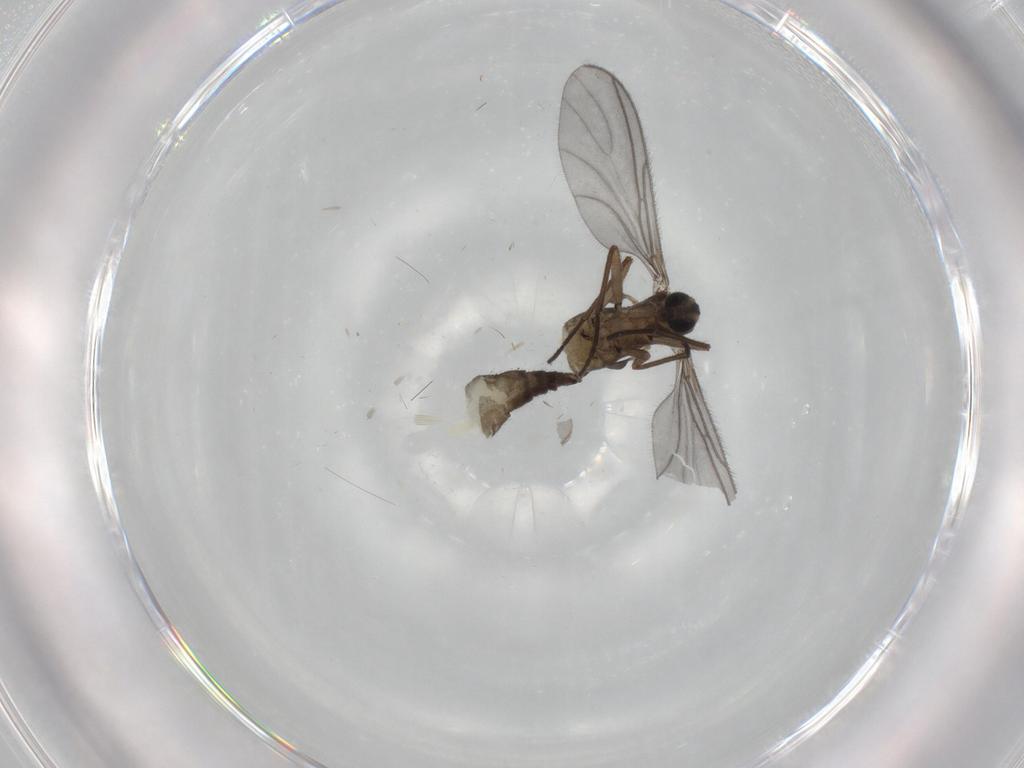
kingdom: Animalia
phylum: Arthropoda
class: Insecta
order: Diptera
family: Sciaridae
